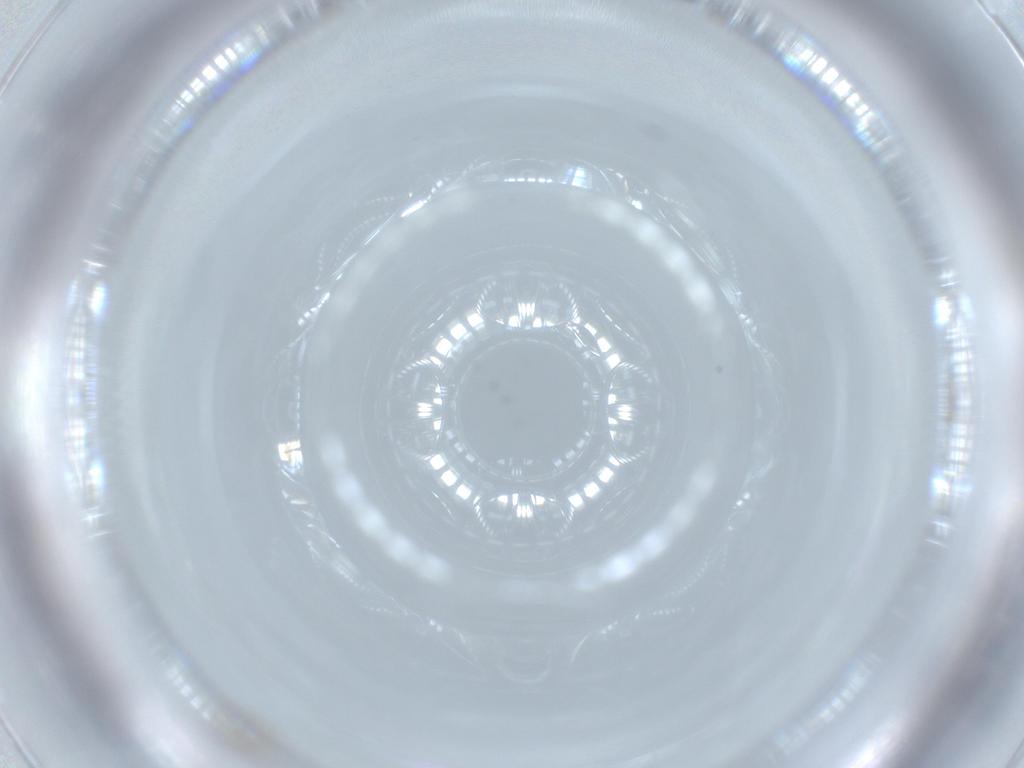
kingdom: Animalia
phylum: Arthropoda
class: Insecta
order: Diptera
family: Cecidomyiidae
